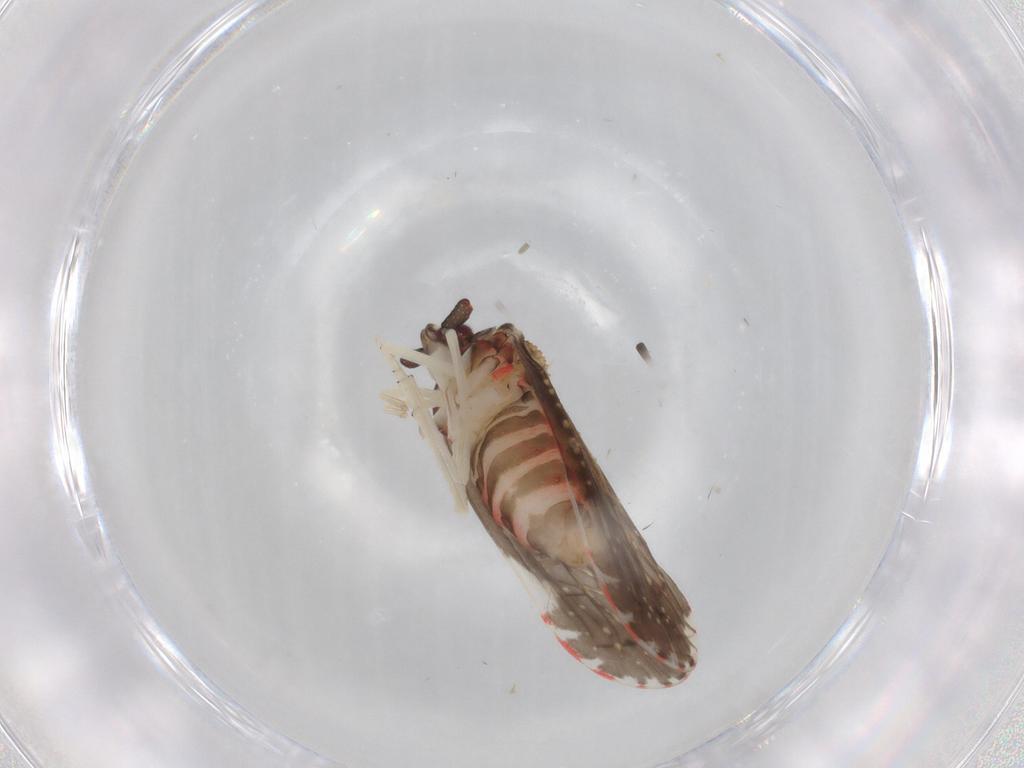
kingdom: Animalia
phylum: Arthropoda
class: Insecta
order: Hemiptera
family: Derbidae
